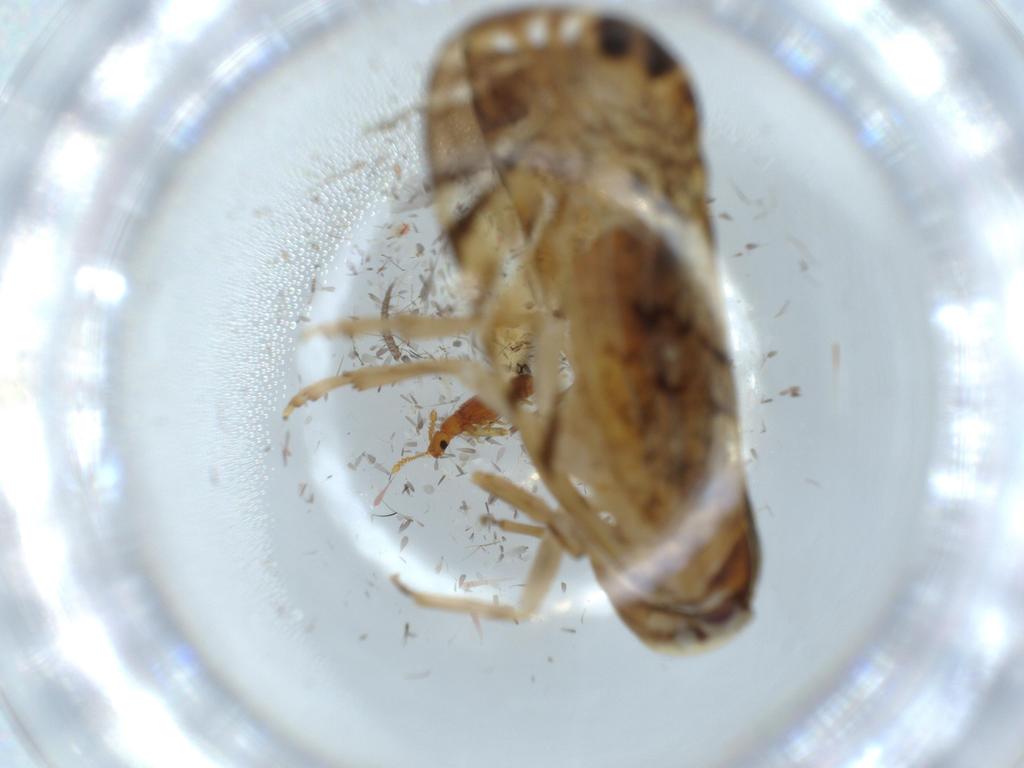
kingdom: Animalia
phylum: Arthropoda
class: Insecta
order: Hemiptera
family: Cixiidae
